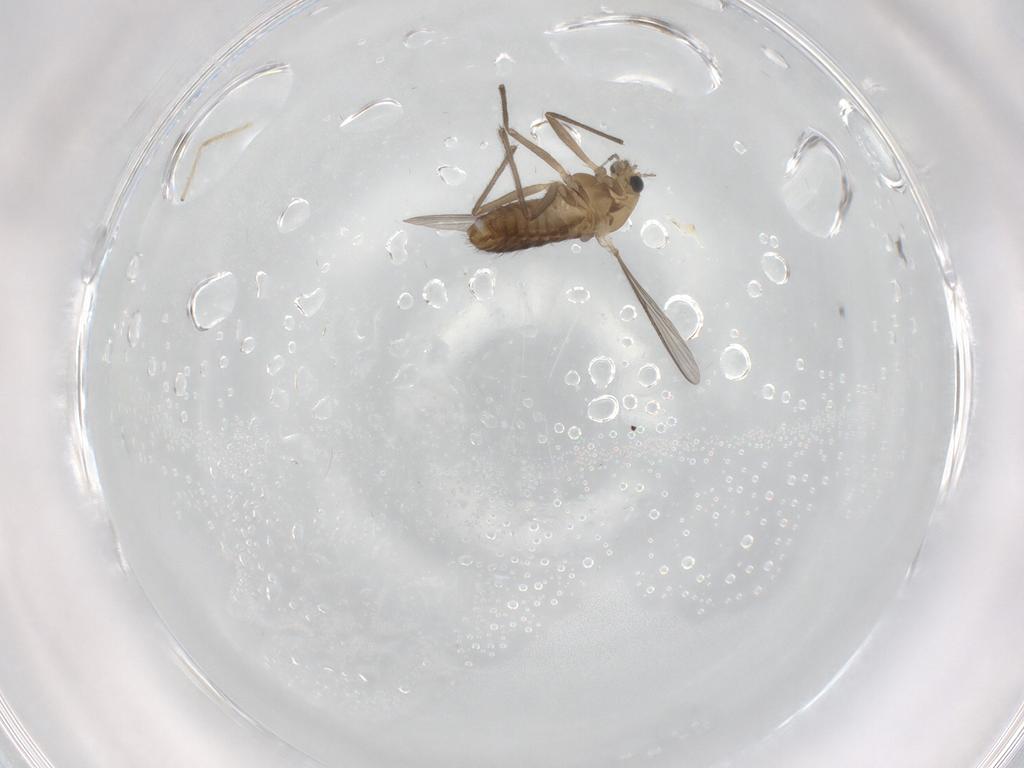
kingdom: Animalia
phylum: Arthropoda
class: Insecta
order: Diptera
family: Chironomidae
